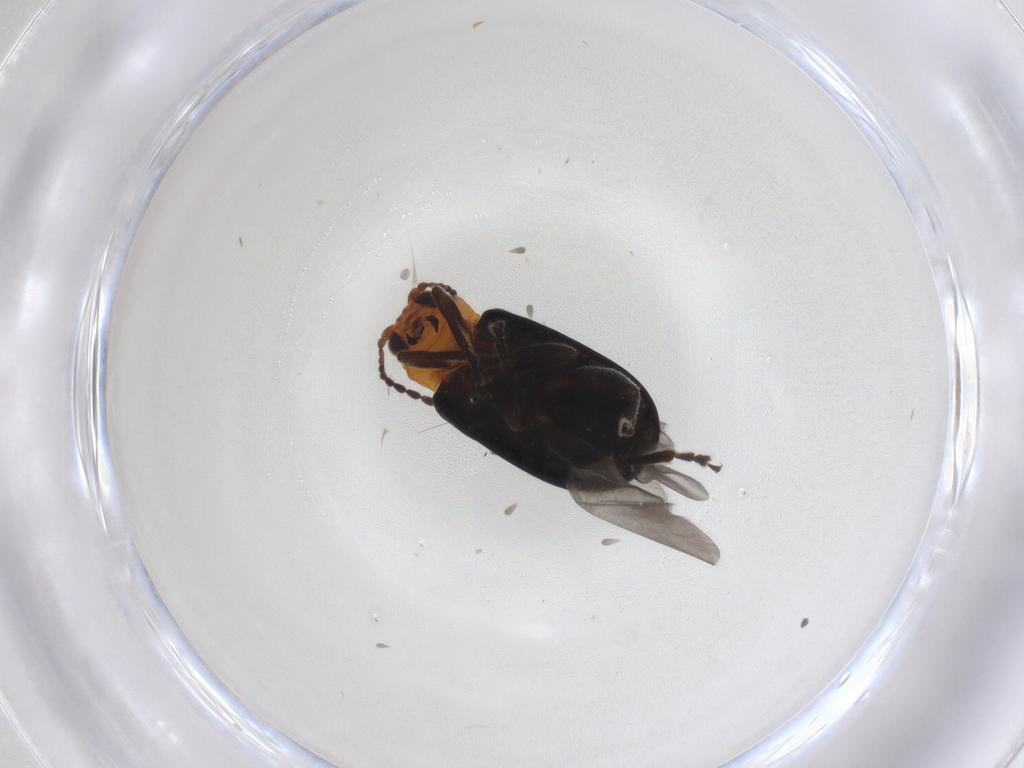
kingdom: Animalia
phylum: Arthropoda
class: Insecta
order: Coleoptera
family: Chrysomelidae
